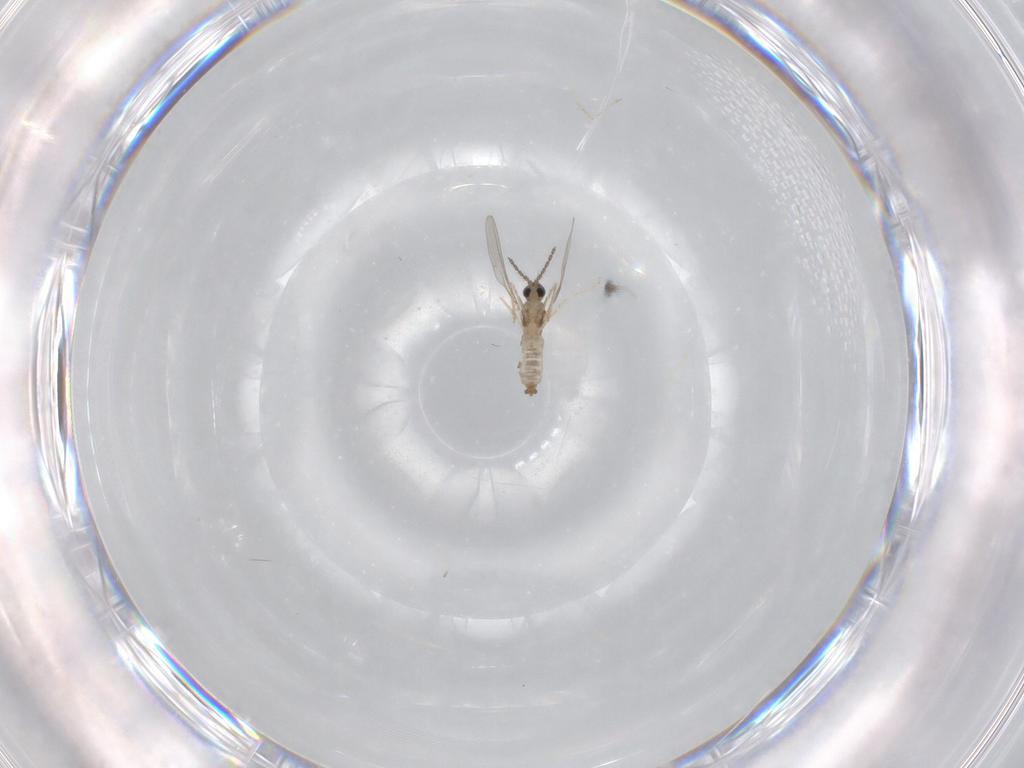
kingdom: Animalia
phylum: Arthropoda
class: Insecta
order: Diptera
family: Cecidomyiidae
